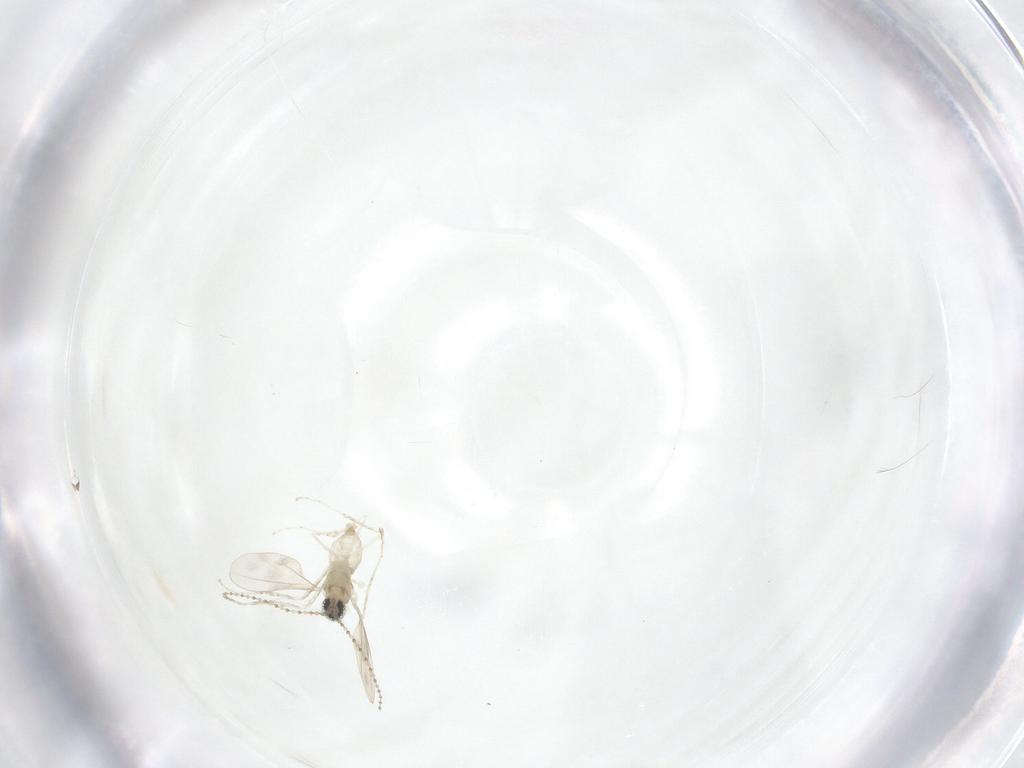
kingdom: Animalia
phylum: Arthropoda
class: Insecta
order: Diptera
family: Cecidomyiidae
